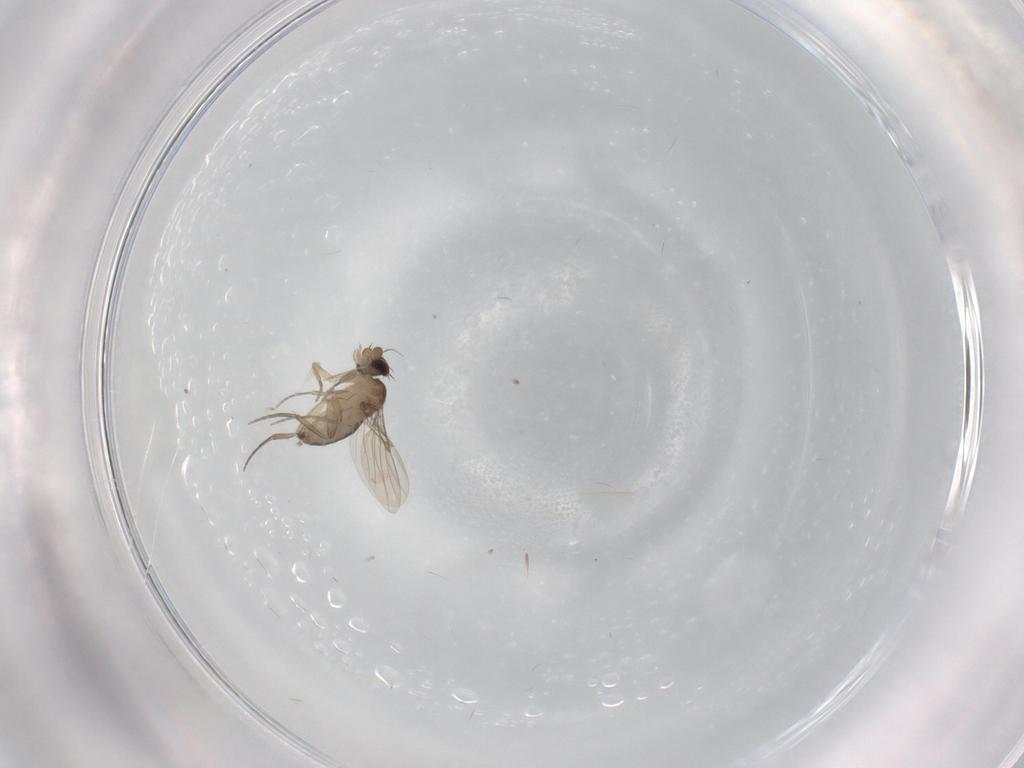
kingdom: Animalia
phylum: Arthropoda
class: Insecta
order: Diptera
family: Phoridae
